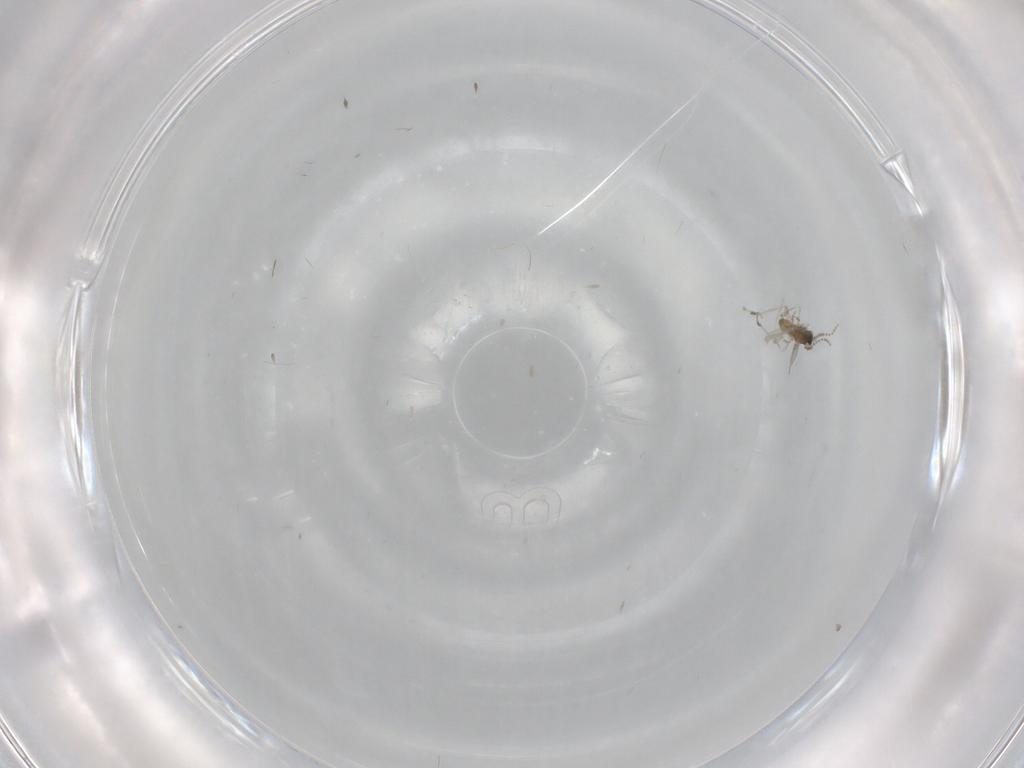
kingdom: Animalia
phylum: Arthropoda
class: Insecta
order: Diptera
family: Cecidomyiidae
